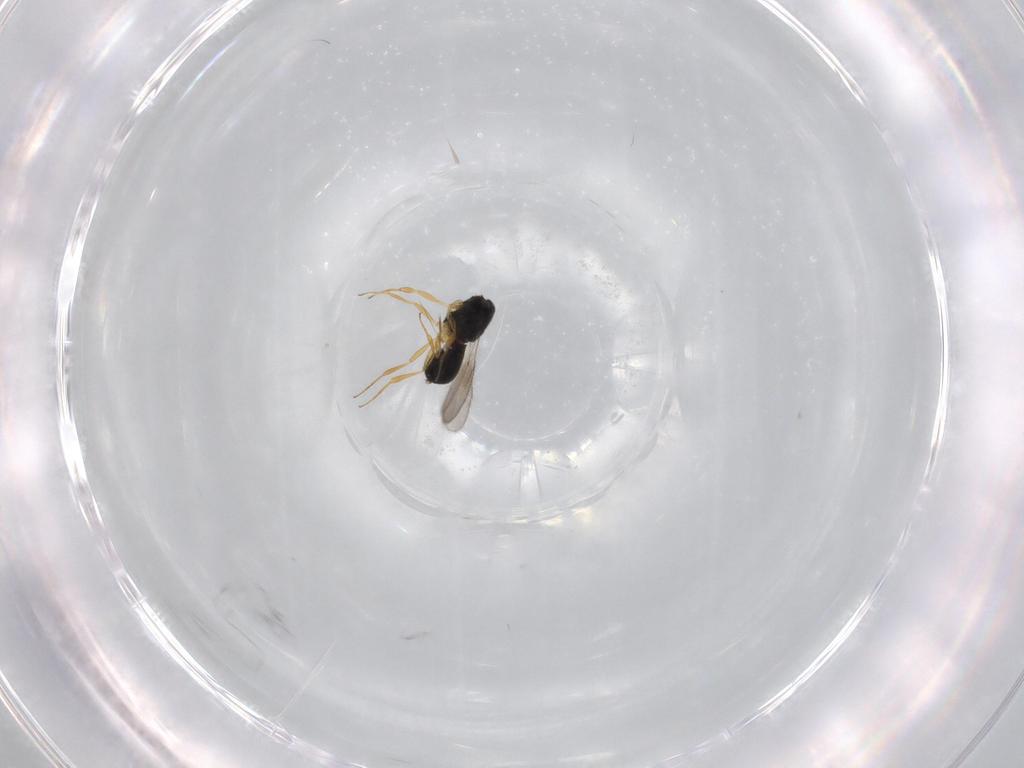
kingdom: Animalia
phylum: Arthropoda
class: Insecta
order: Hymenoptera
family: Scelionidae
